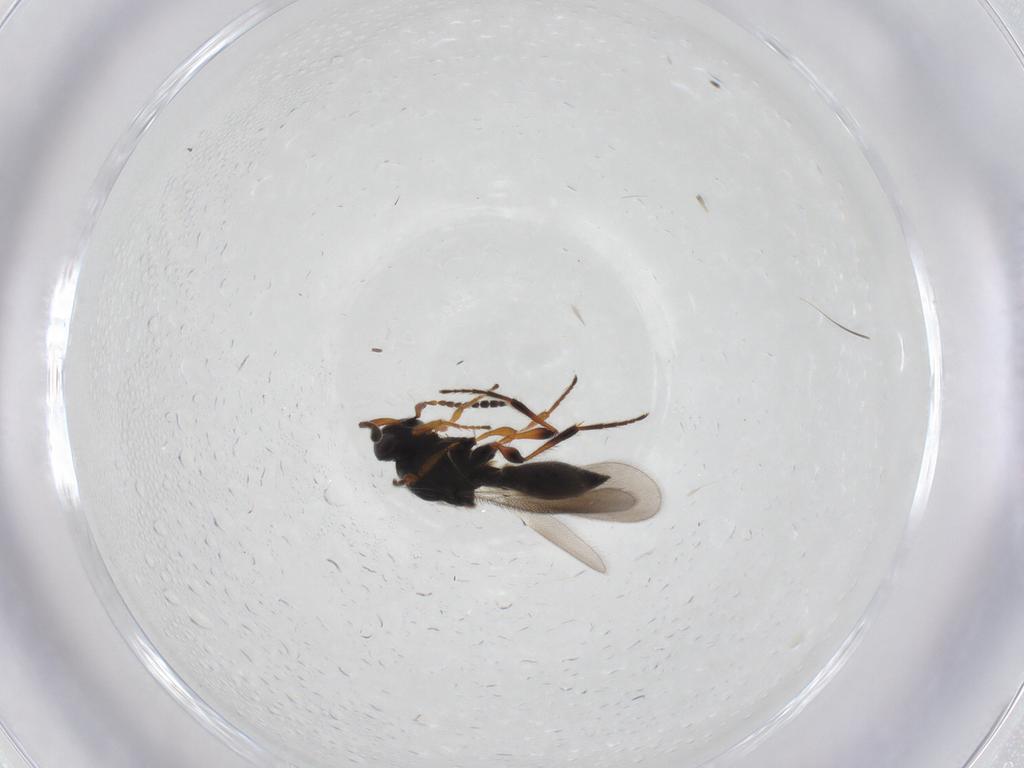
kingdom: Animalia
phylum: Arthropoda
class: Insecta
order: Hymenoptera
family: Platygastridae
